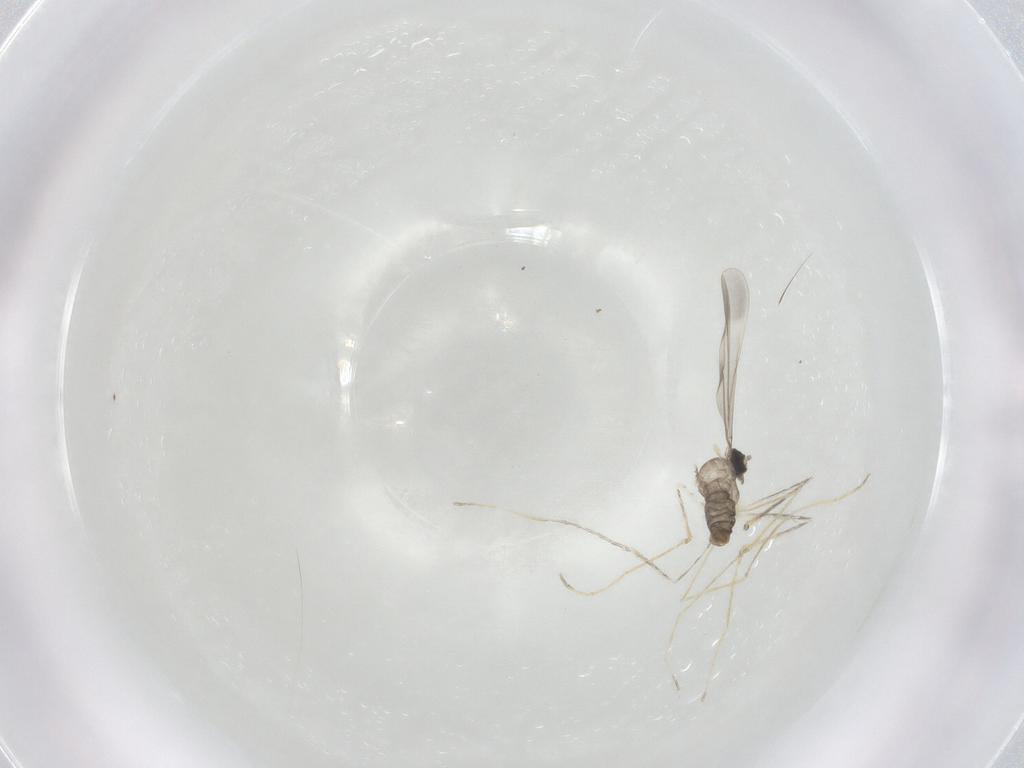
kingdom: Animalia
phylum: Arthropoda
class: Insecta
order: Diptera
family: Cecidomyiidae
